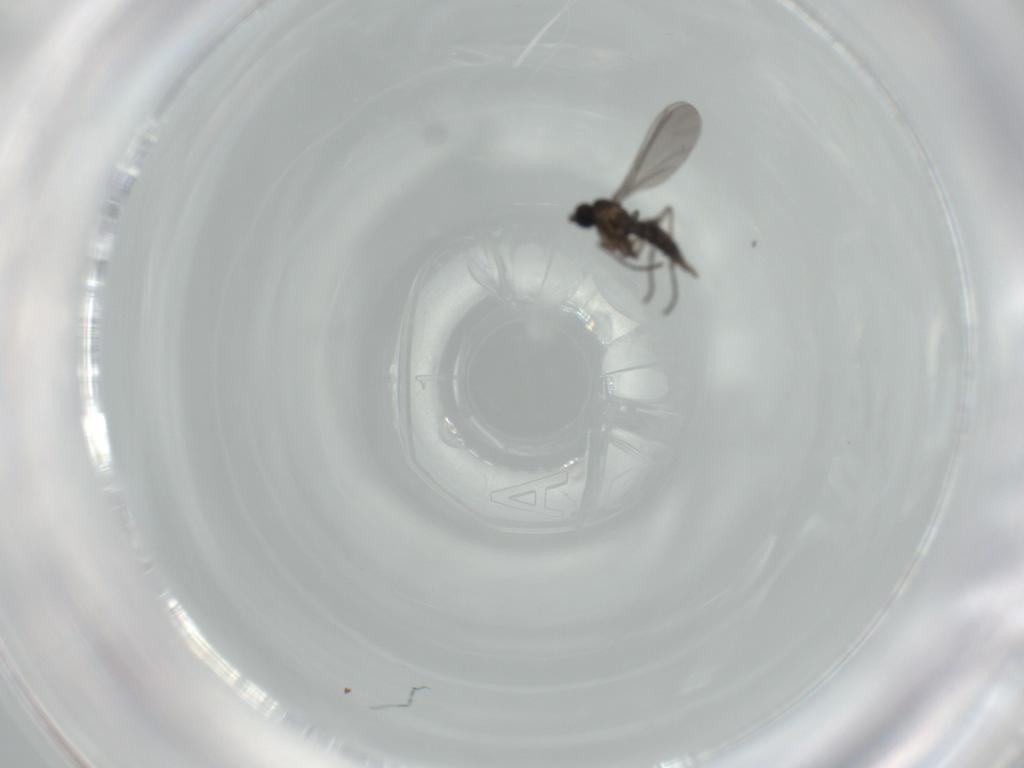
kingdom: Animalia
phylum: Arthropoda
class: Insecta
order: Diptera
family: Sciaridae
